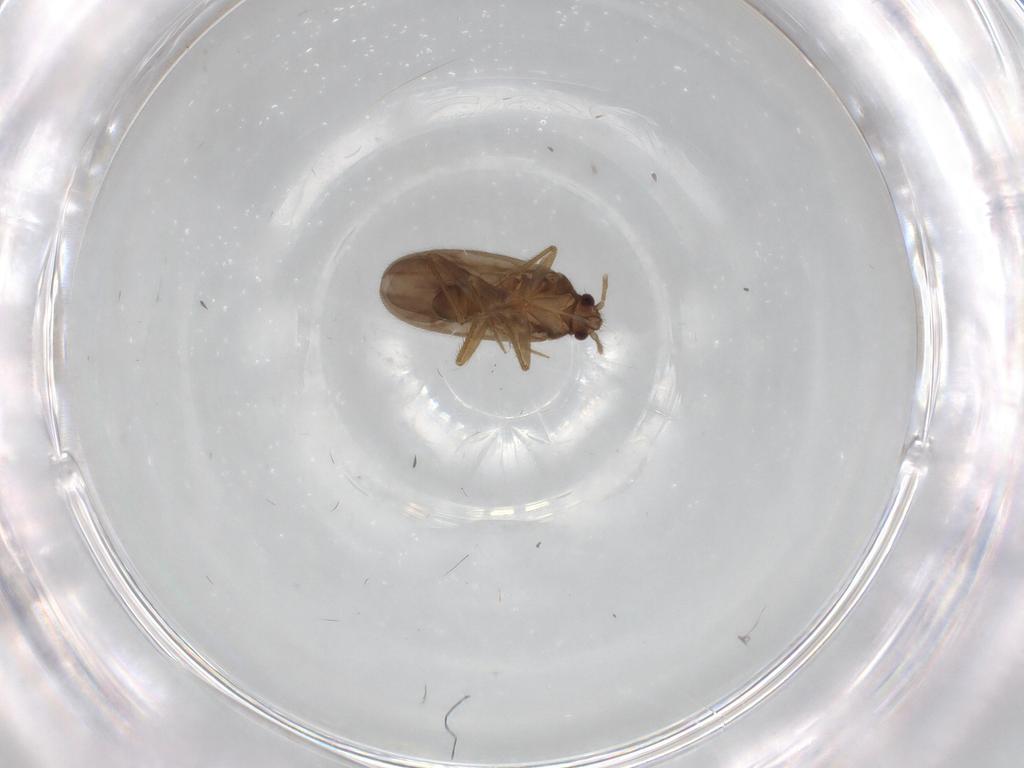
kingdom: Animalia
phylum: Arthropoda
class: Insecta
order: Hemiptera
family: Ceratocombidae
